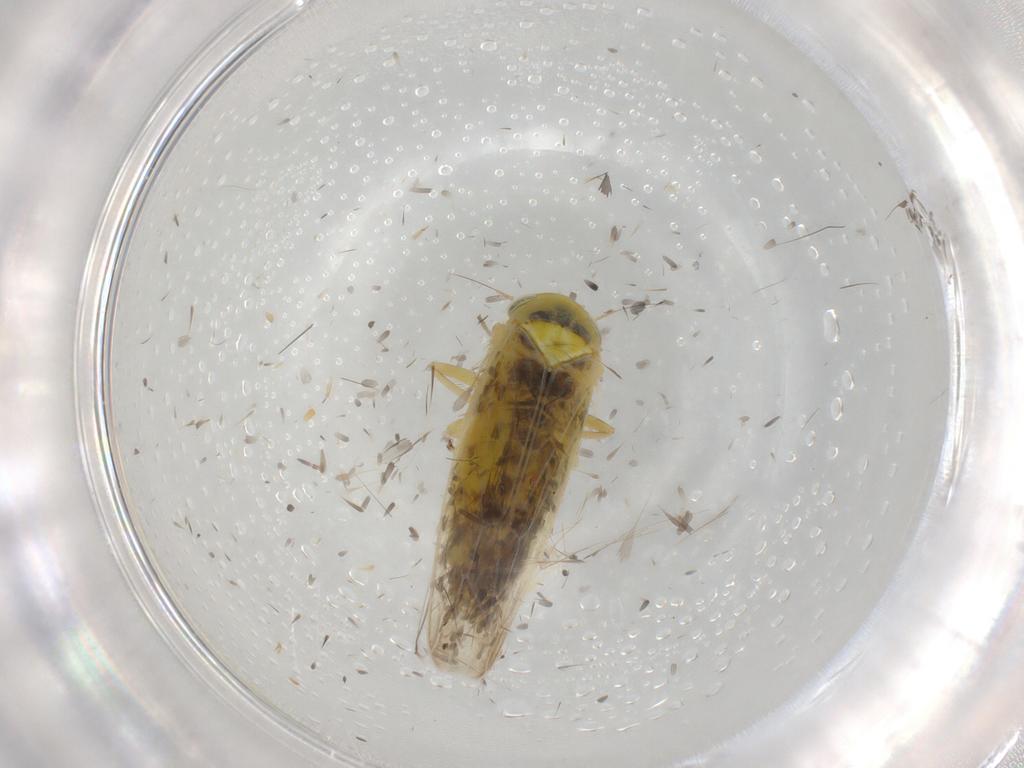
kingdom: Animalia
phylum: Arthropoda
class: Insecta
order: Hemiptera
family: Cicadellidae
